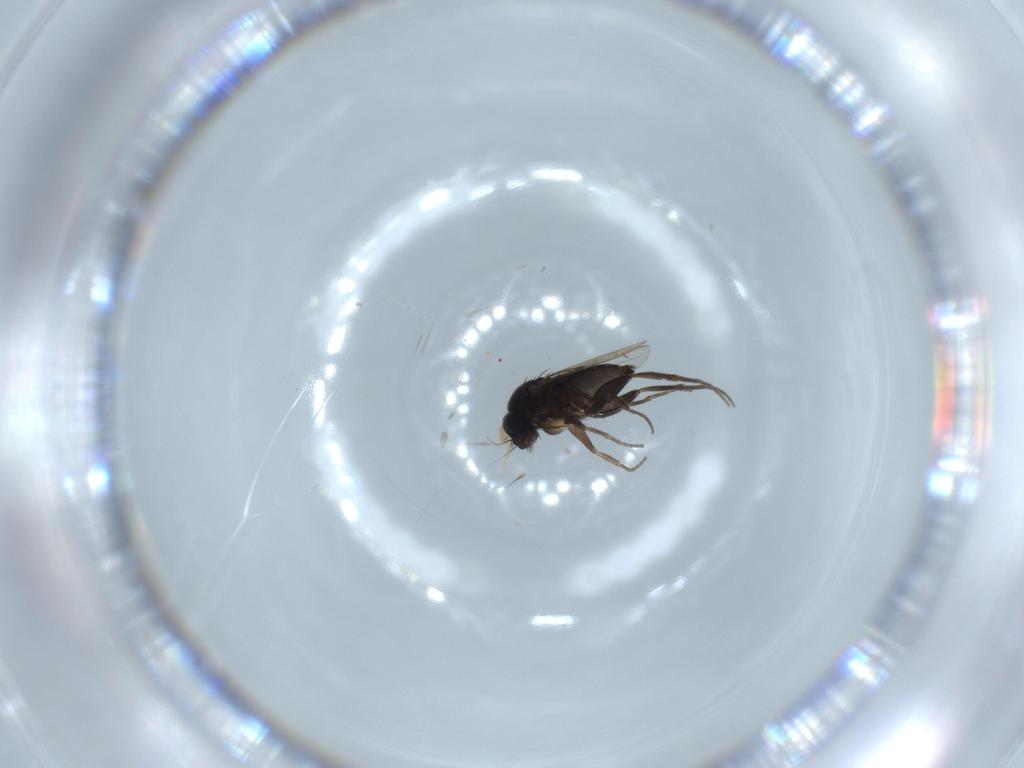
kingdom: Animalia
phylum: Arthropoda
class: Insecta
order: Diptera
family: Phoridae
